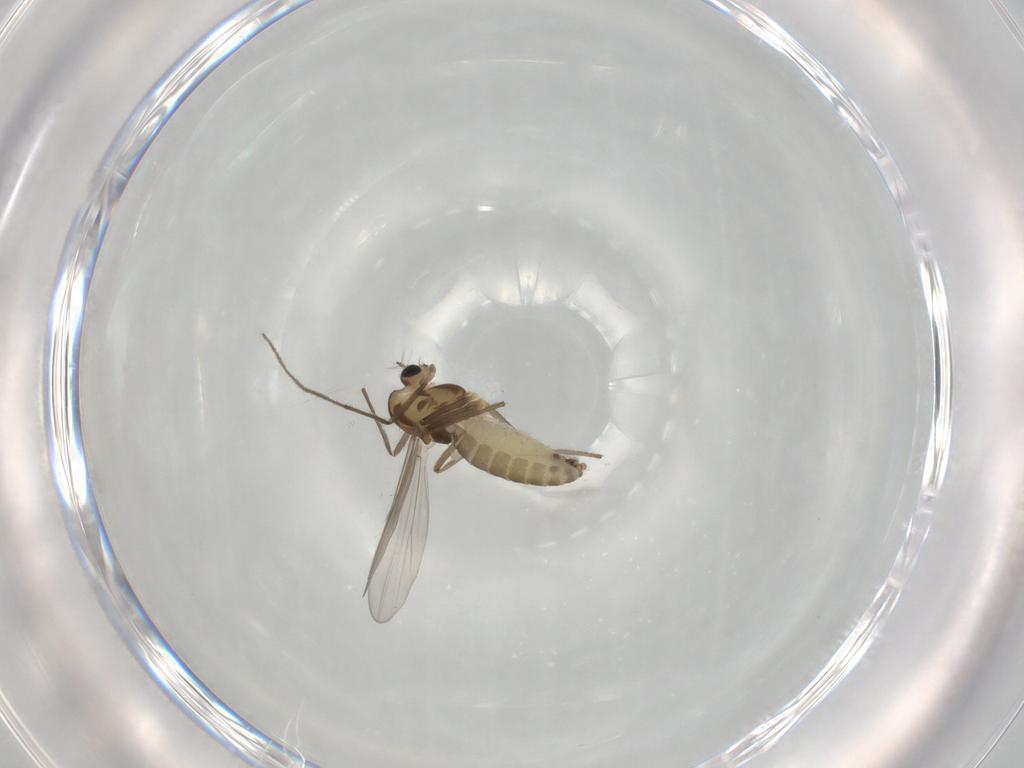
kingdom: Animalia
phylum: Arthropoda
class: Insecta
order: Diptera
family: Chironomidae
